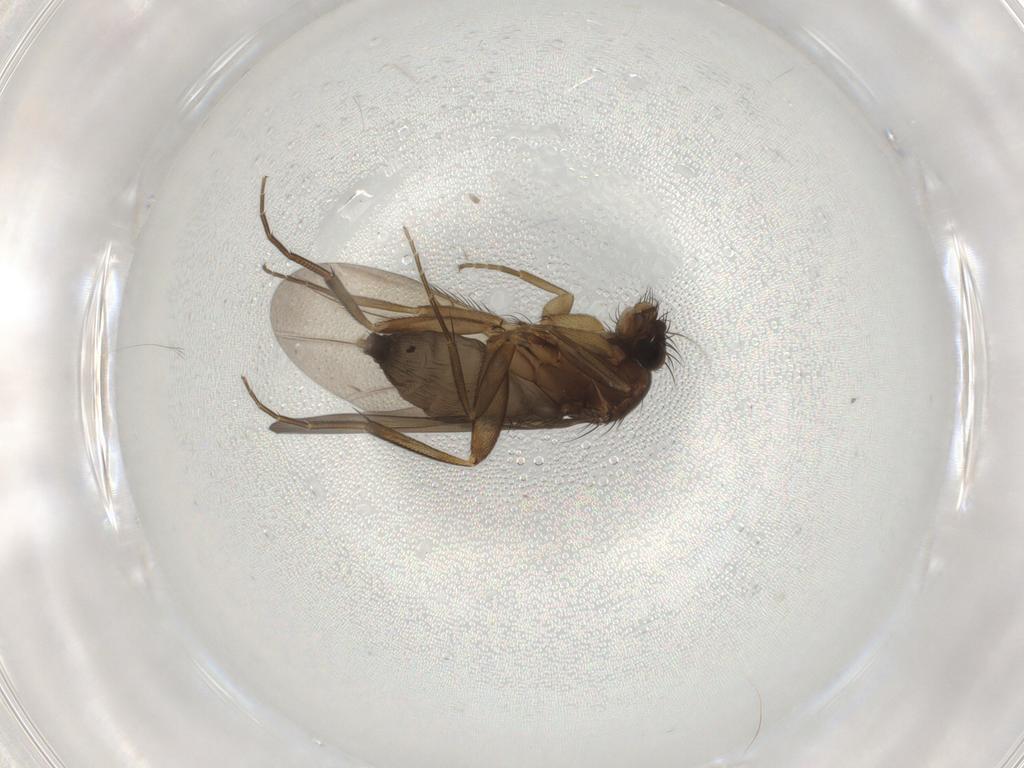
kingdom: Animalia
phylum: Arthropoda
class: Insecta
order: Diptera
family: Phoridae
